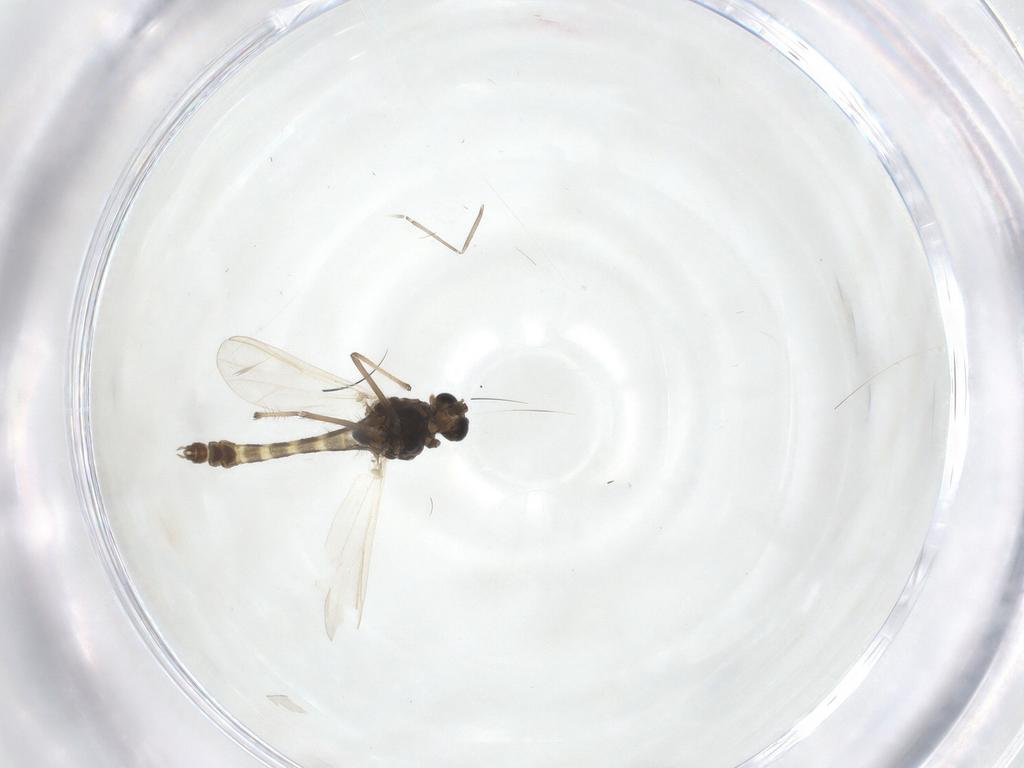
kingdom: Animalia
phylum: Arthropoda
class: Insecta
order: Diptera
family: Chironomidae
